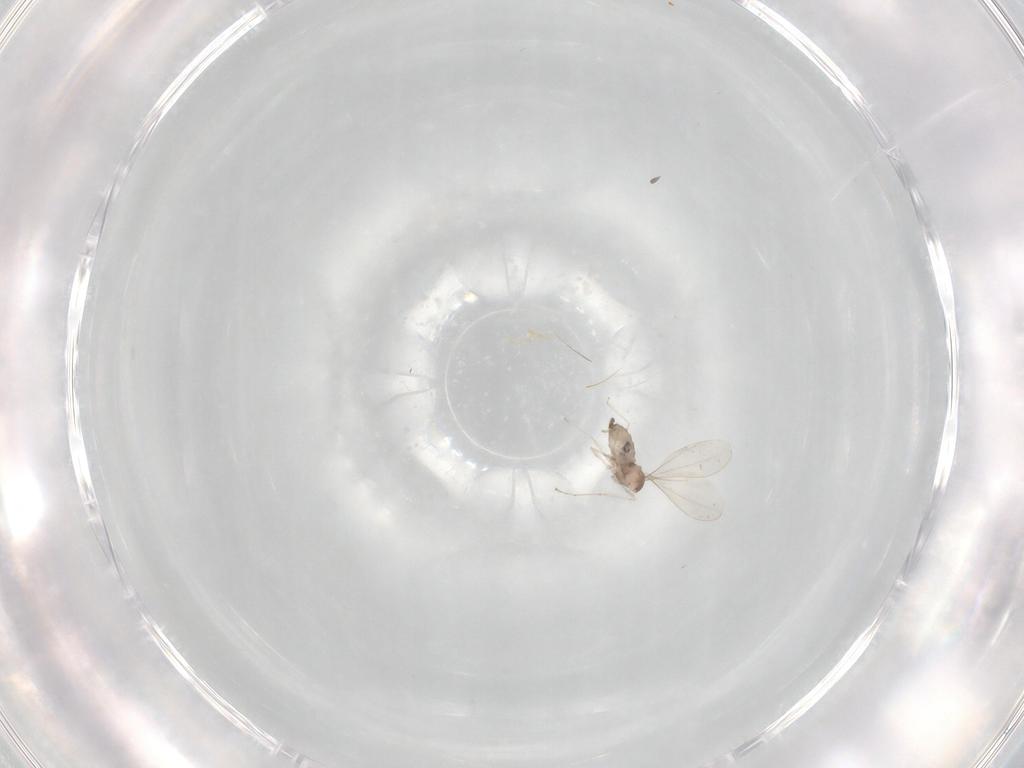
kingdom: Animalia
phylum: Arthropoda
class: Insecta
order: Diptera
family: Cecidomyiidae
